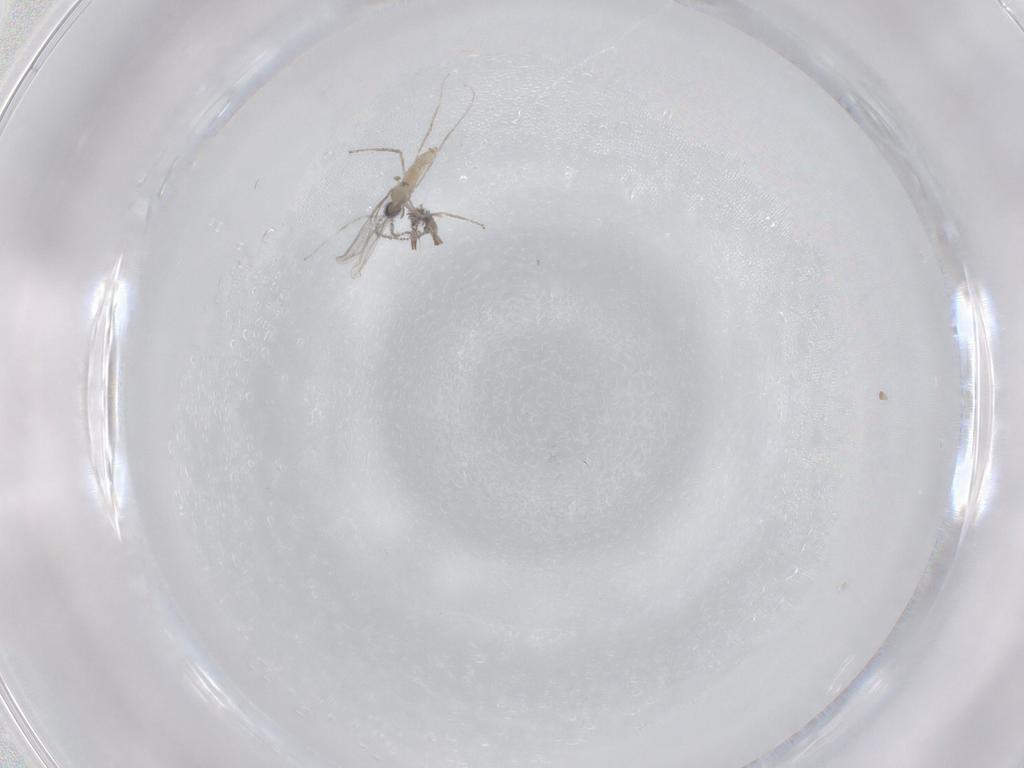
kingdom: Animalia
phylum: Arthropoda
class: Insecta
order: Diptera
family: Cecidomyiidae
